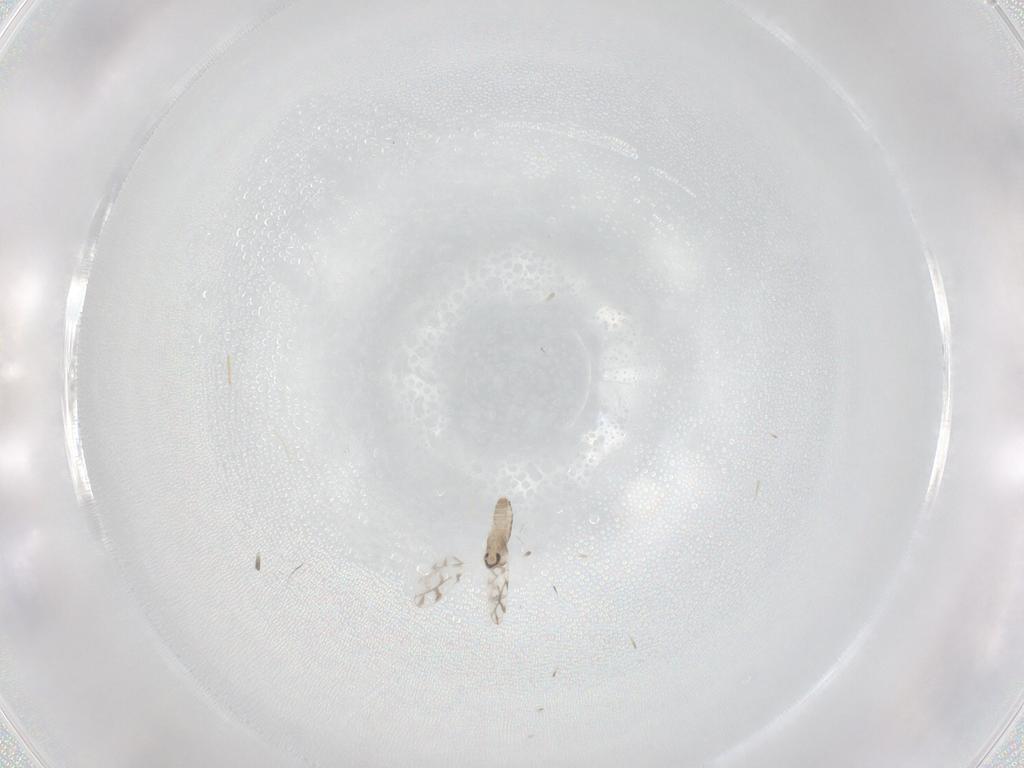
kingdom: Animalia
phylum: Arthropoda
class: Insecta
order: Diptera
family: Cecidomyiidae
